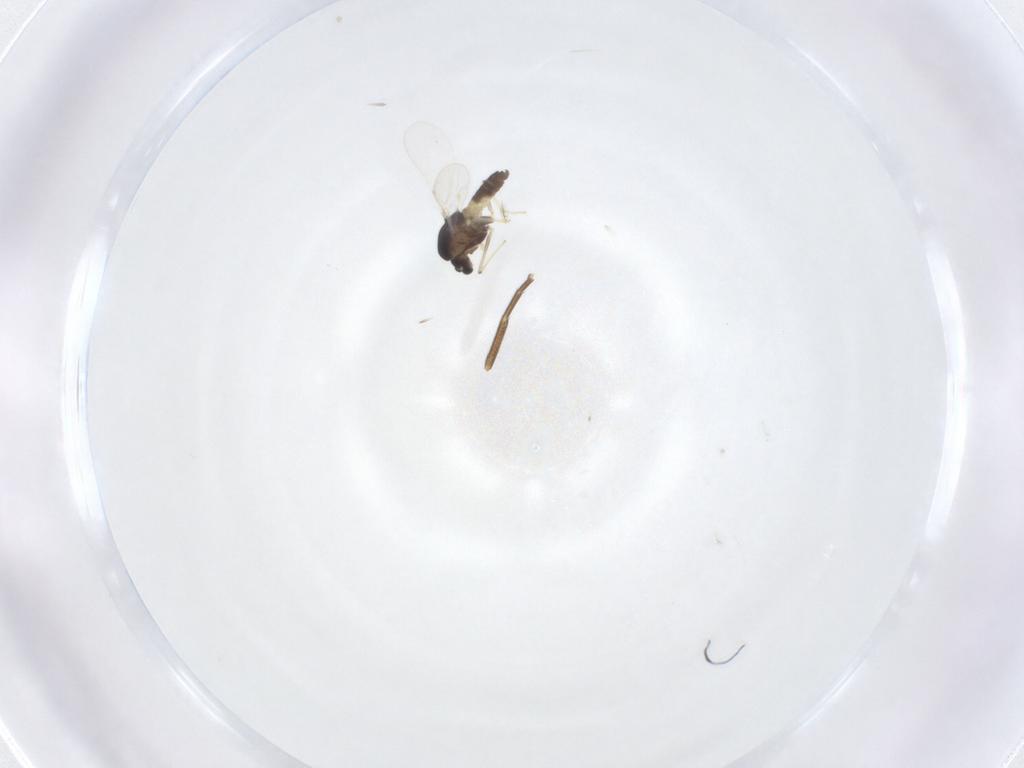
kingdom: Animalia
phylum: Arthropoda
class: Insecta
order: Diptera
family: Chironomidae
